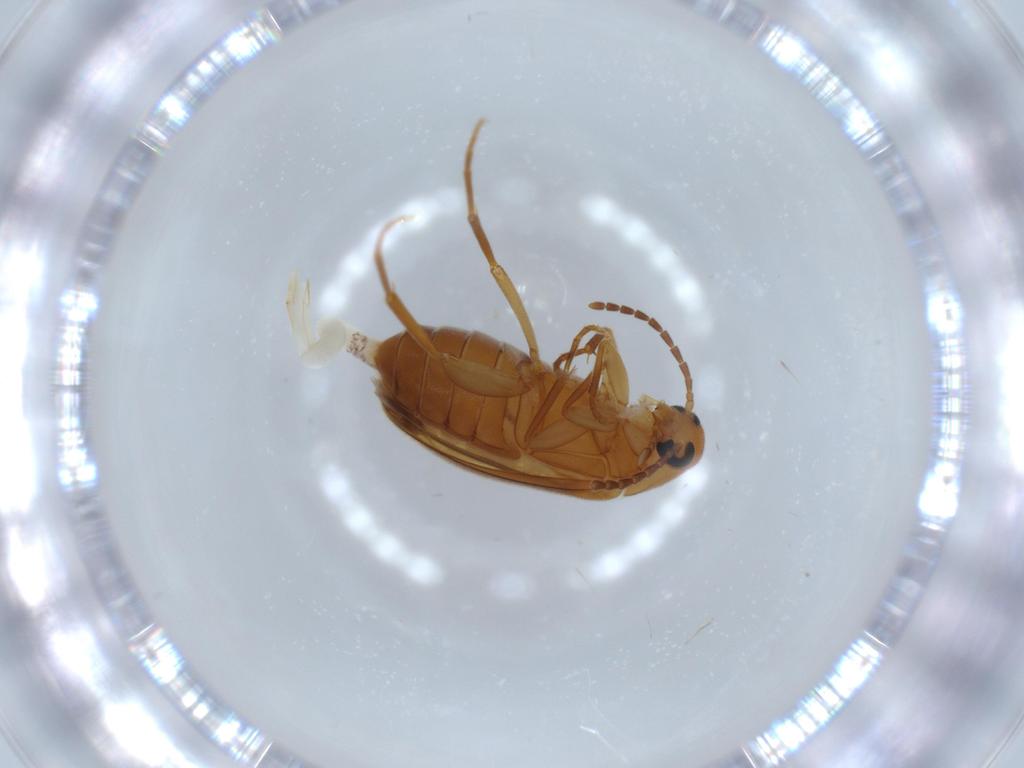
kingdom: Animalia
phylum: Arthropoda
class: Insecta
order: Coleoptera
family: Scraptiidae
